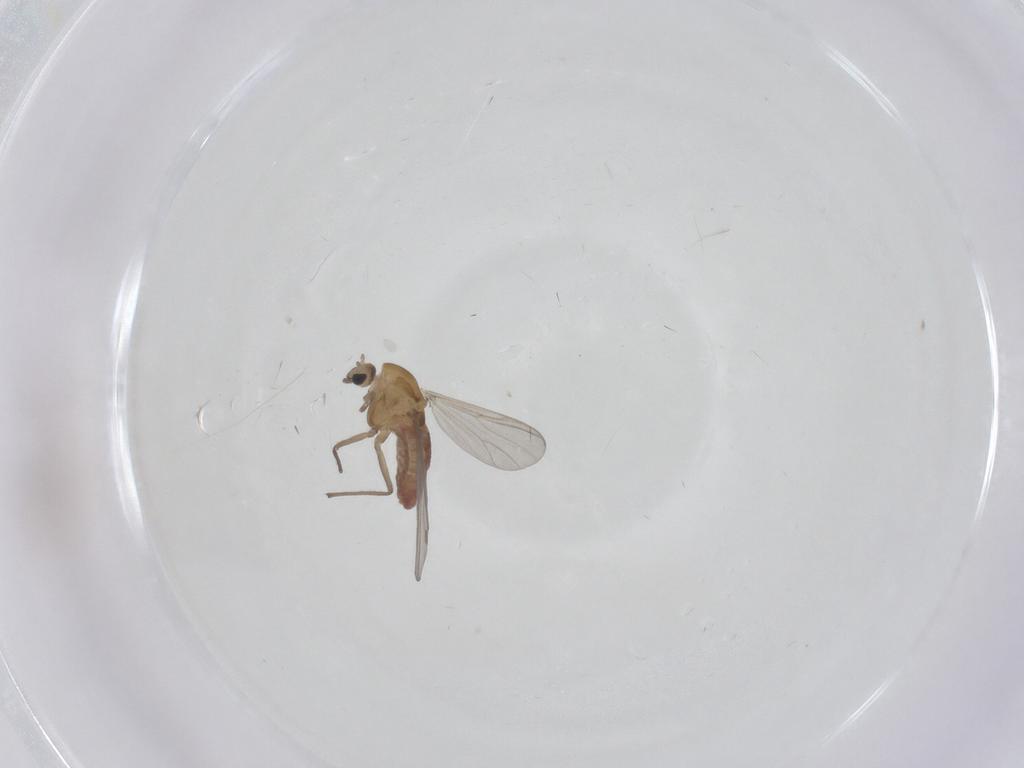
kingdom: Animalia
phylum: Arthropoda
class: Insecta
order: Diptera
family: Chironomidae
